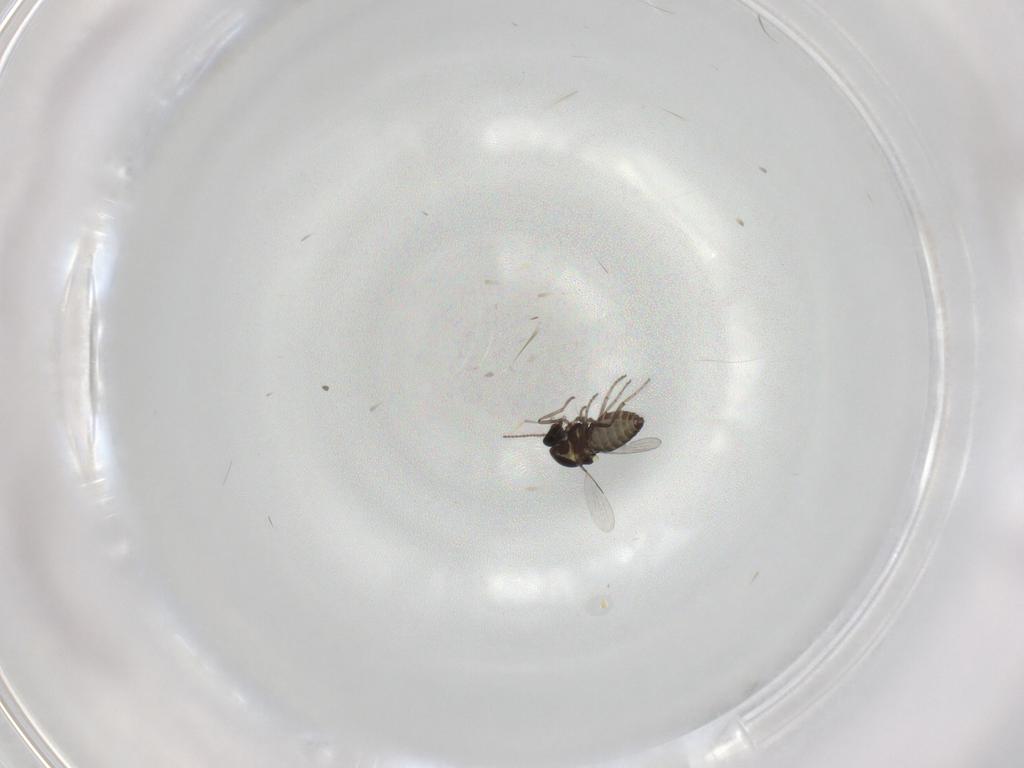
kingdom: Animalia
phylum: Arthropoda
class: Insecta
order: Diptera
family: Ceratopogonidae
